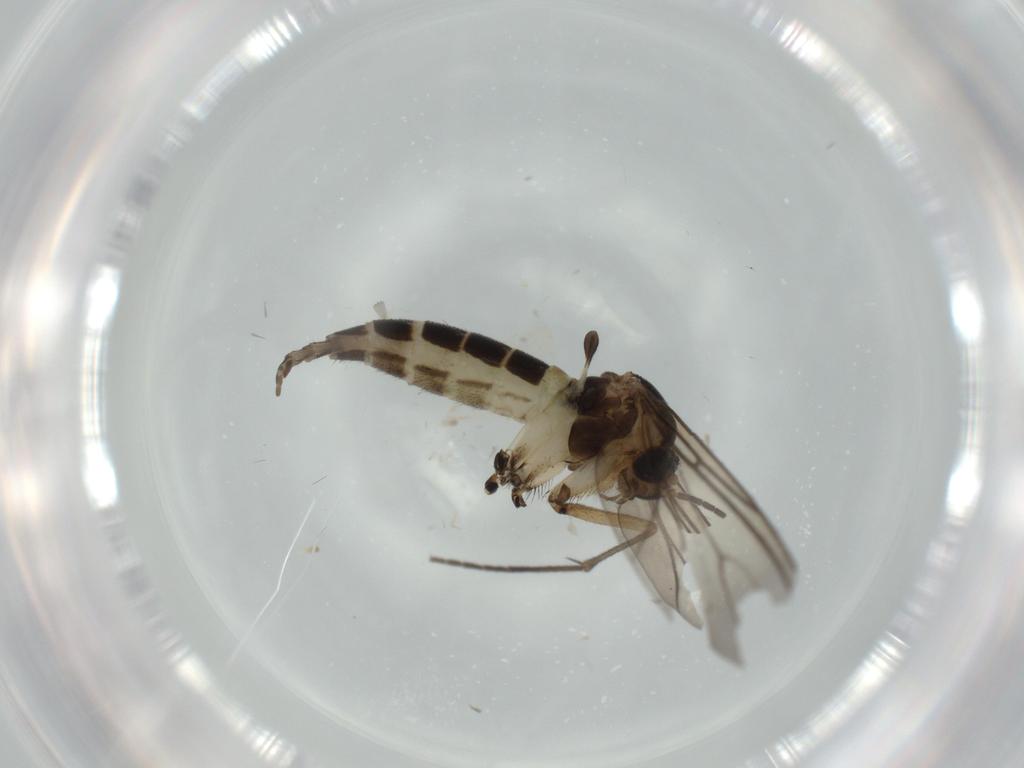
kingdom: Animalia
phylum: Arthropoda
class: Insecta
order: Diptera
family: Sciaridae
